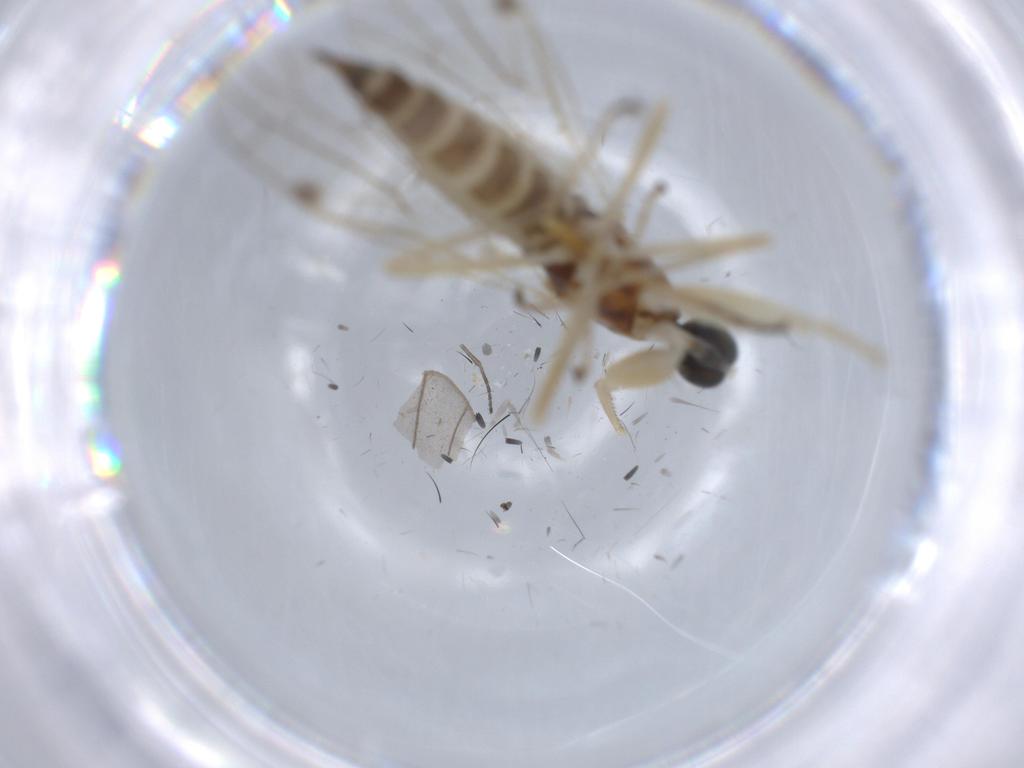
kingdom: Animalia
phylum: Arthropoda
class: Insecta
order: Diptera
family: Empididae
